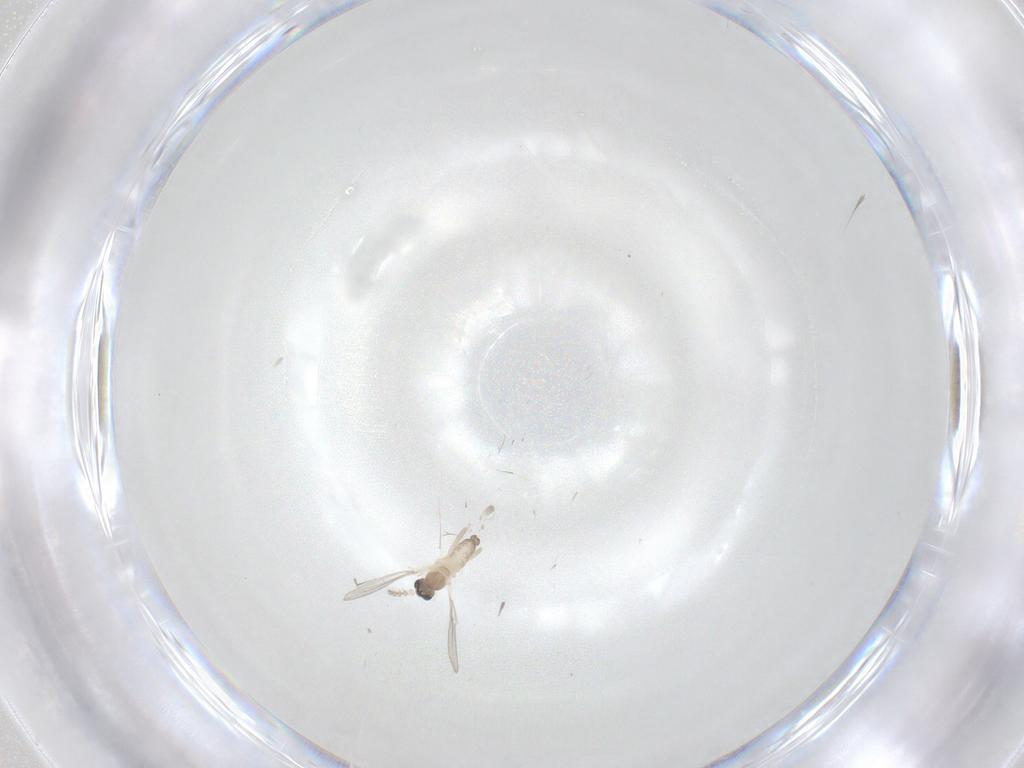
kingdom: Animalia
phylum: Arthropoda
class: Insecta
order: Diptera
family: Cecidomyiidae
